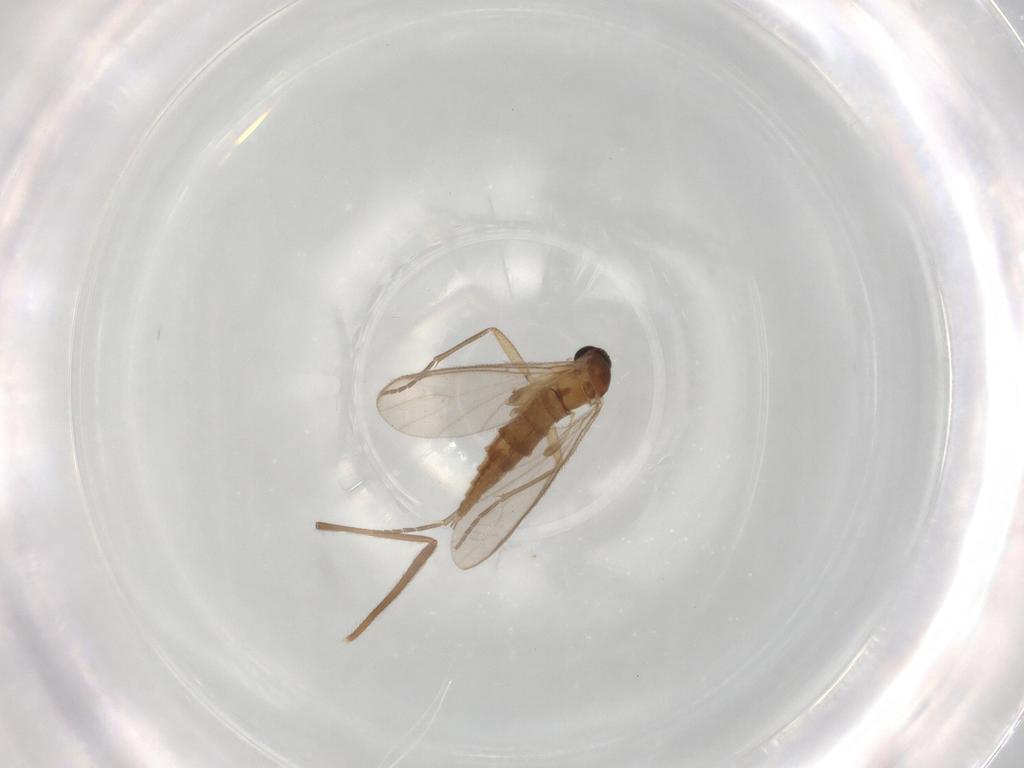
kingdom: Animalia
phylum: Arthropoda
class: Insecta
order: Diptera
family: Sciaridae
